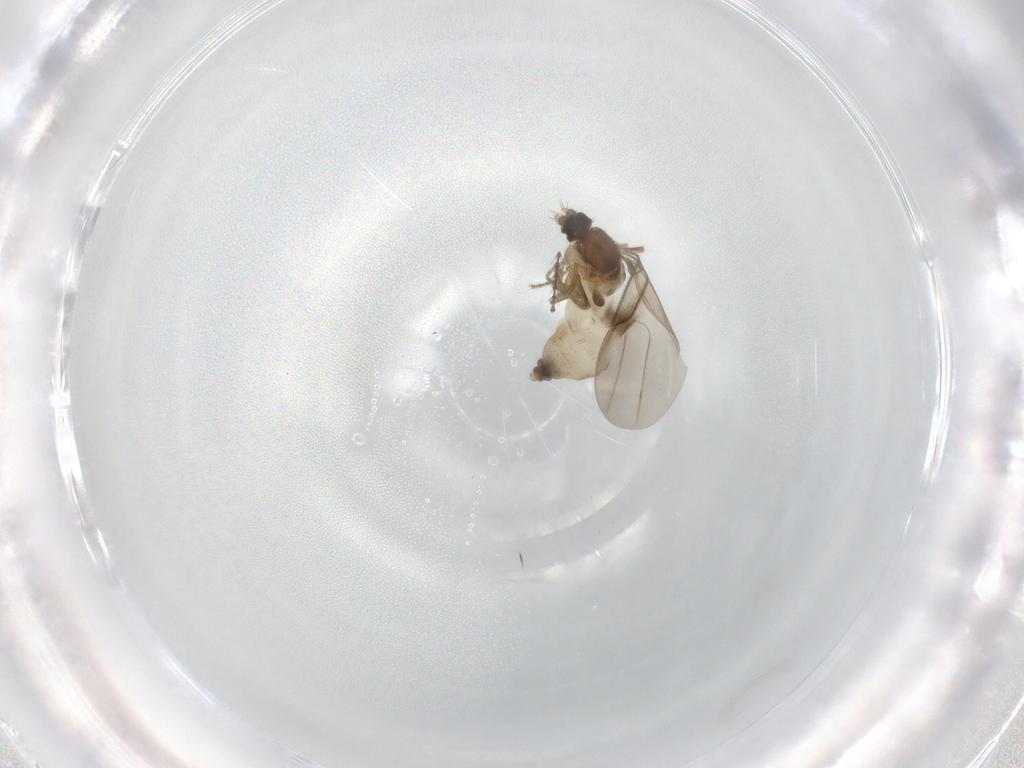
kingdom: Animalia
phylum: Arthropoda
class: Insecta
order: Diptera
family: Phoridae
